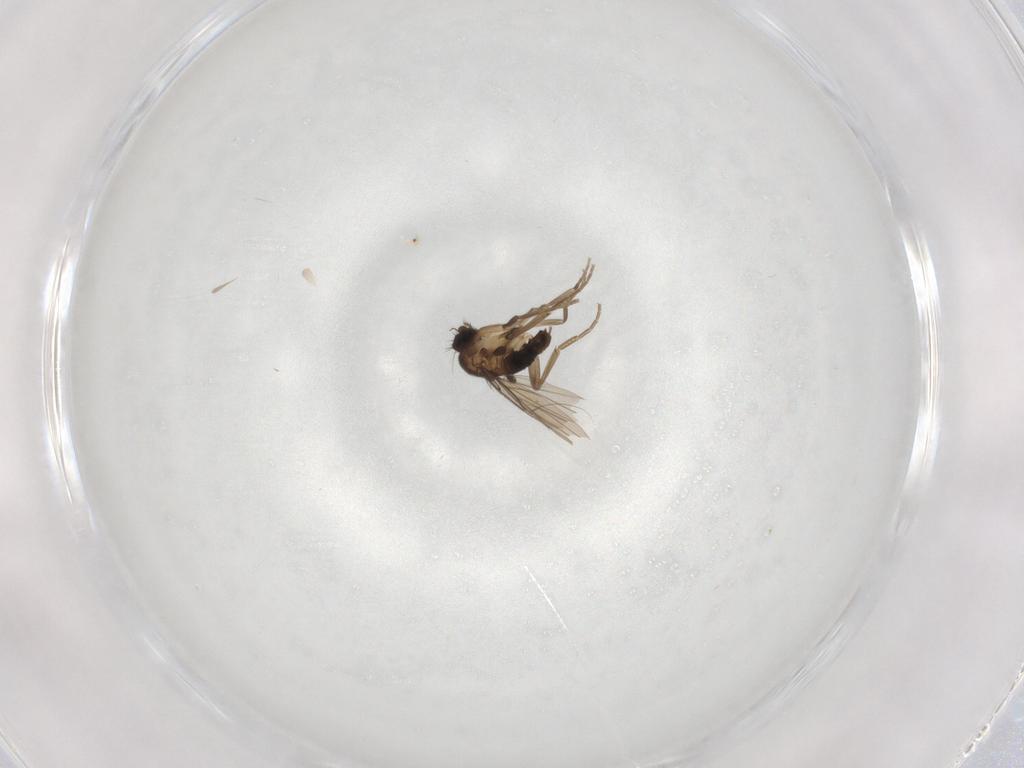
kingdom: Animalia
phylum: Arthropoda
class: Insecta
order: Diptera
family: Phoridae
